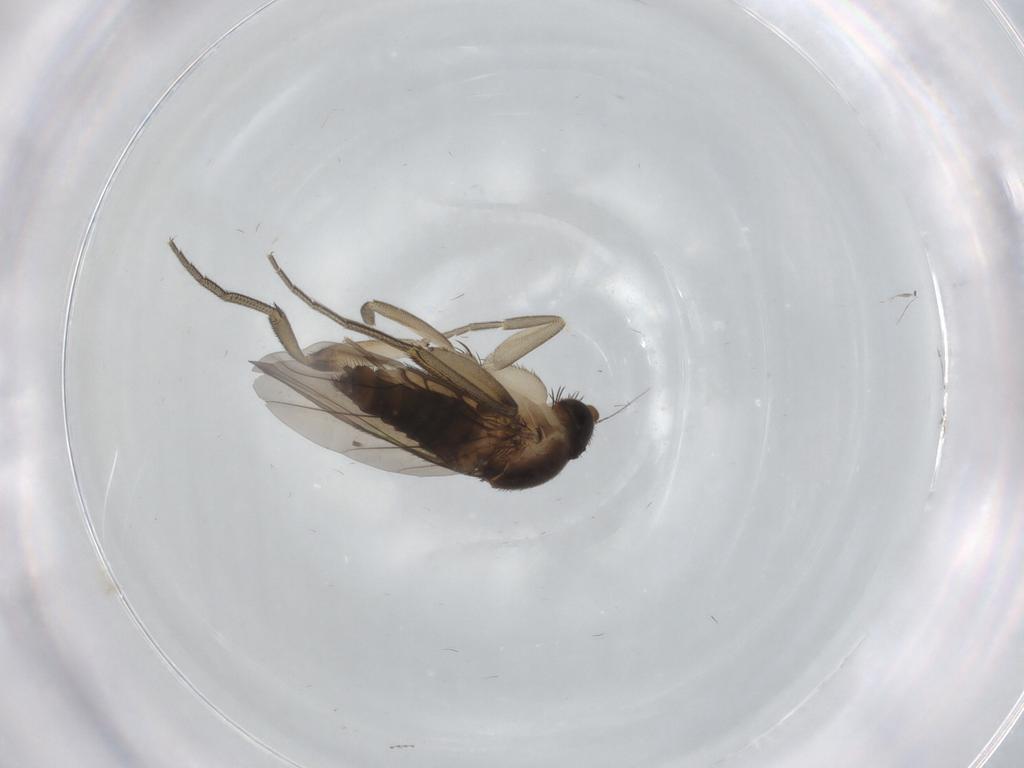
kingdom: Animalia
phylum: Arthropoda
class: Insecta
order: Diptera
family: Phoridae
